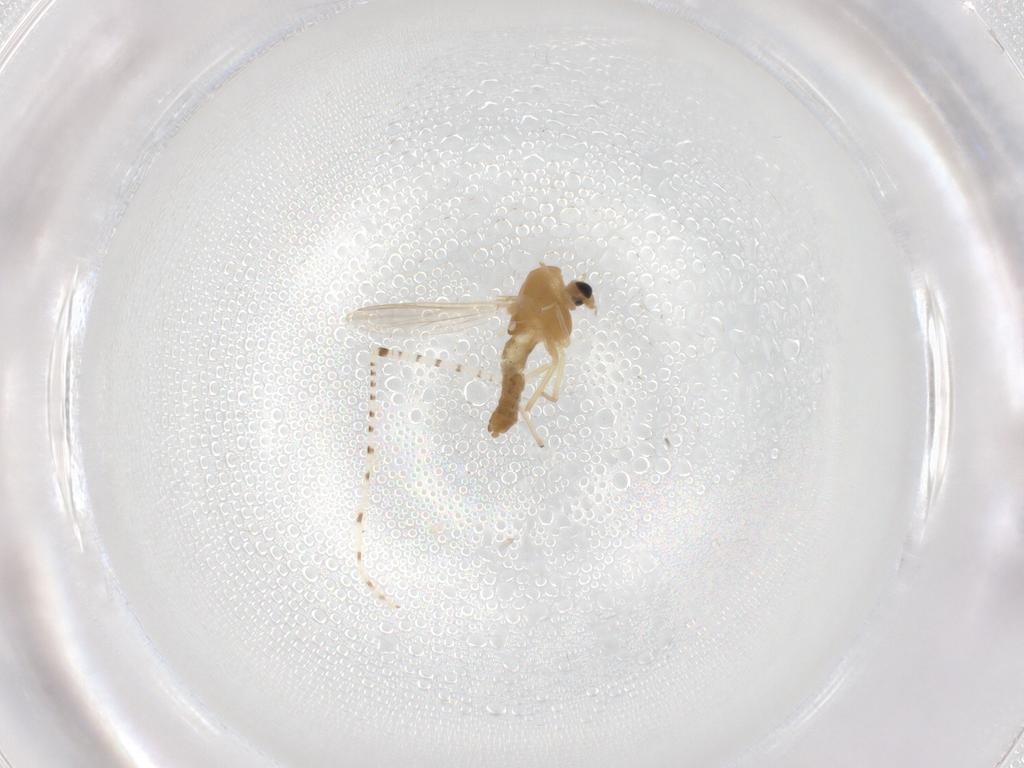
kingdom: Animalia
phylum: Arthropoda
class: Insecta
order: Diptera
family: Chironomidae
